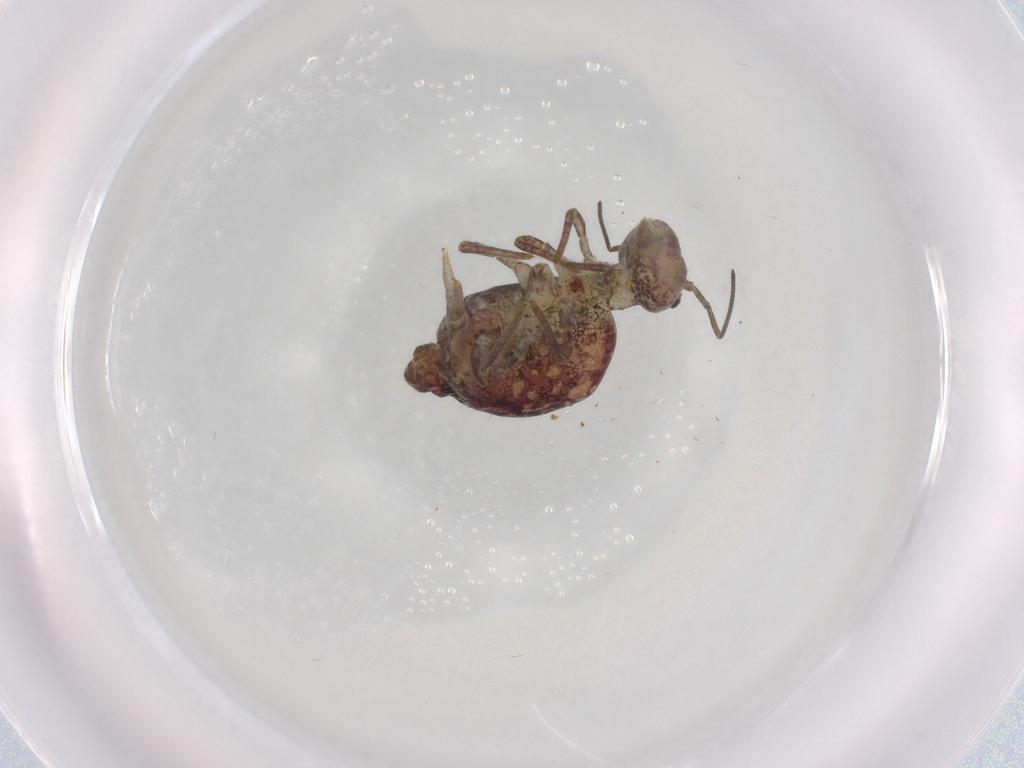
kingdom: Animalia
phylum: Arthropoda
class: Collembola
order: Symphypleona
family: Sminthuridae
